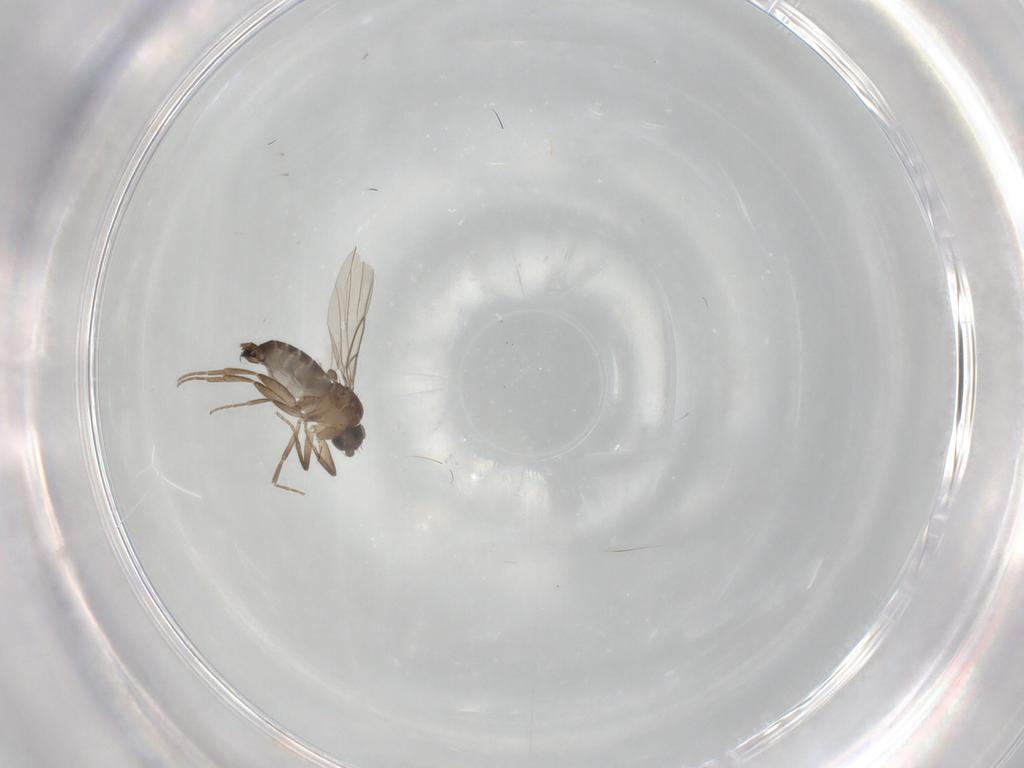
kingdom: Animalia
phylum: Arthropoda
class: Insecta
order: Diptera
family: Phoridae
